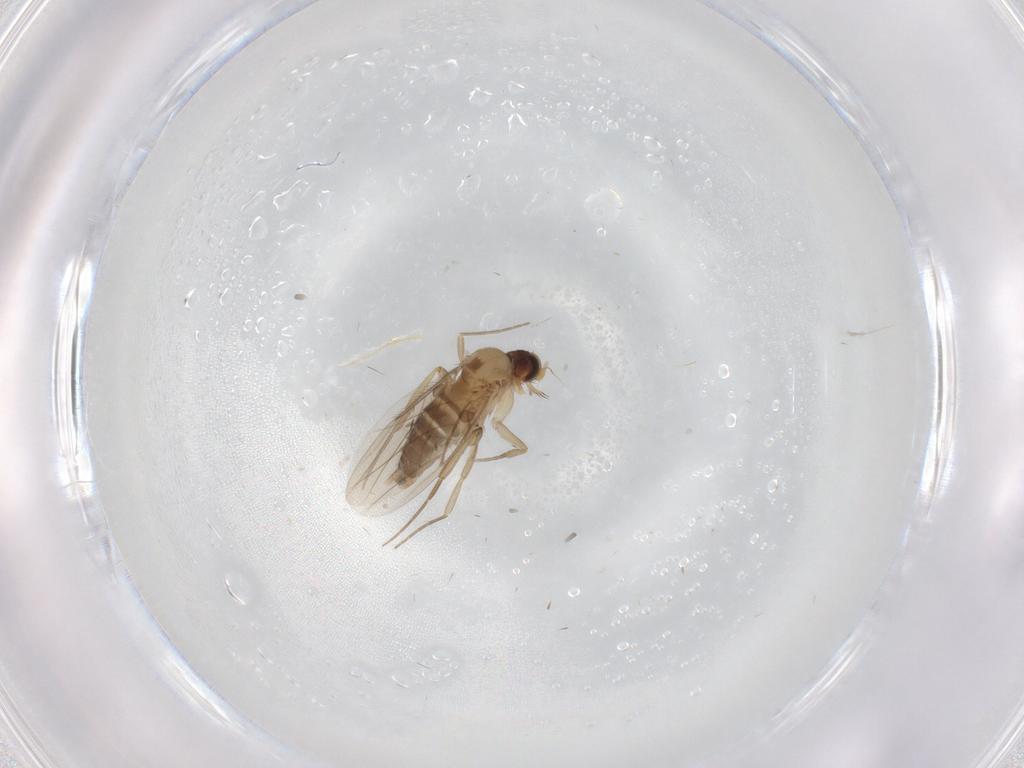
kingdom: Animalia
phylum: Arthropoda
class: Insecta
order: Diptera
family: Phoridae
